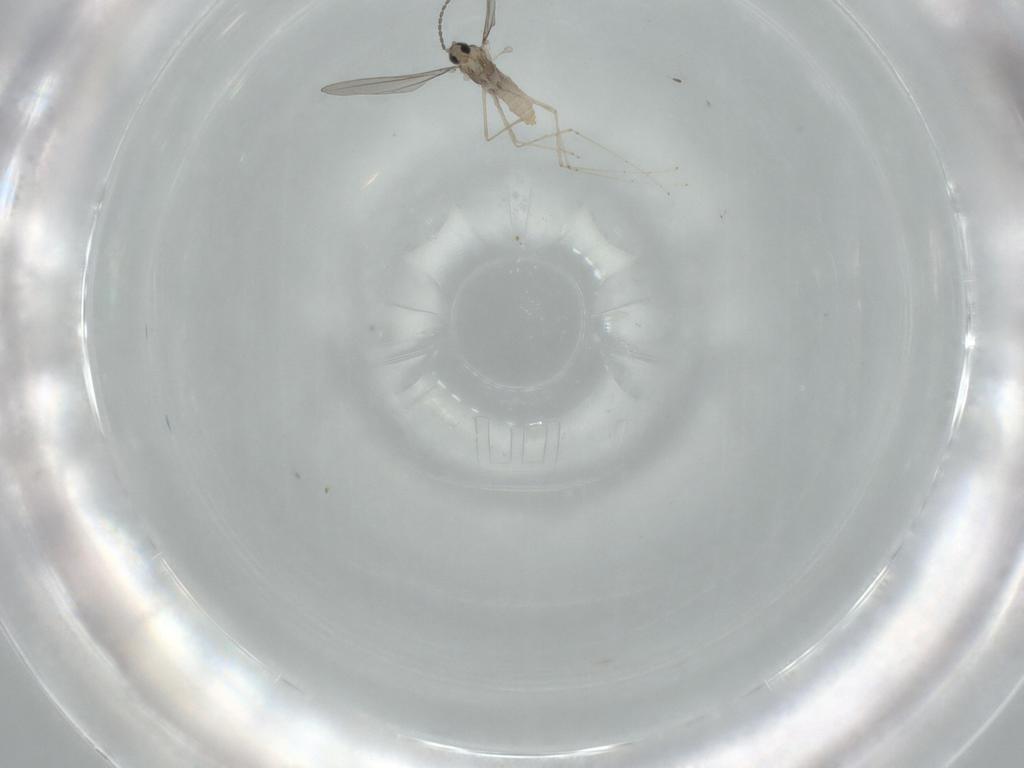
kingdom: Animalia
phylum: Arthropoda
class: Insecta
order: Diptera
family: Cecidomyiidae
